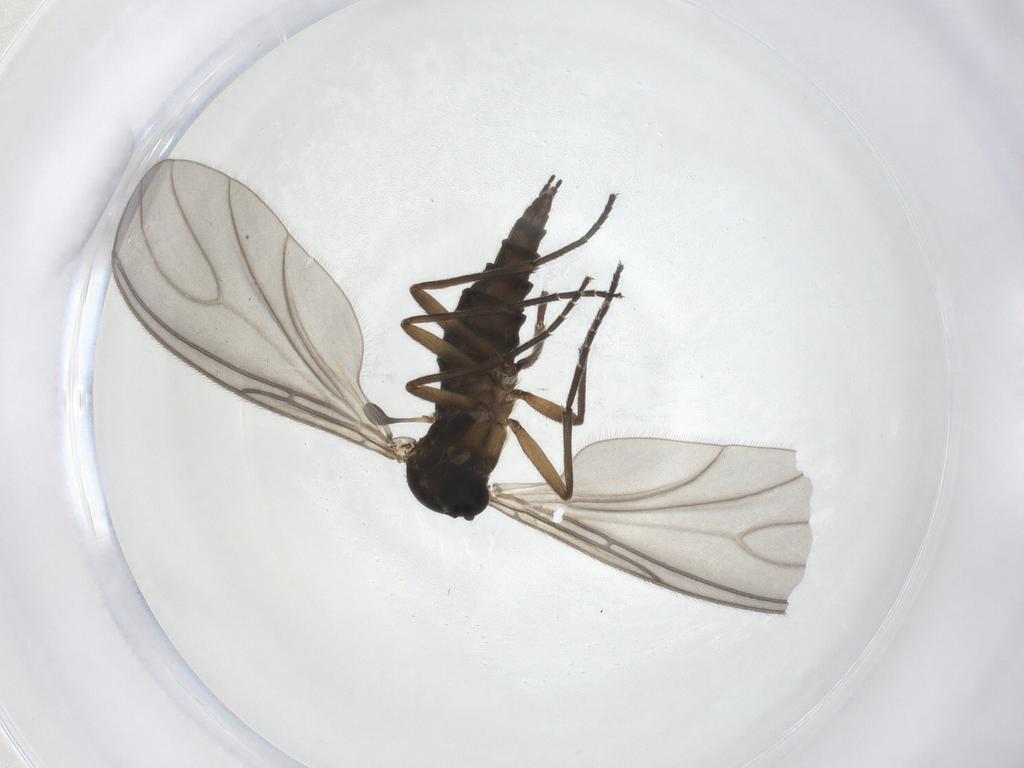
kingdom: Animalia
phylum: Arthropoda
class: Insecta
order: Diptera
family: Sciaridae
